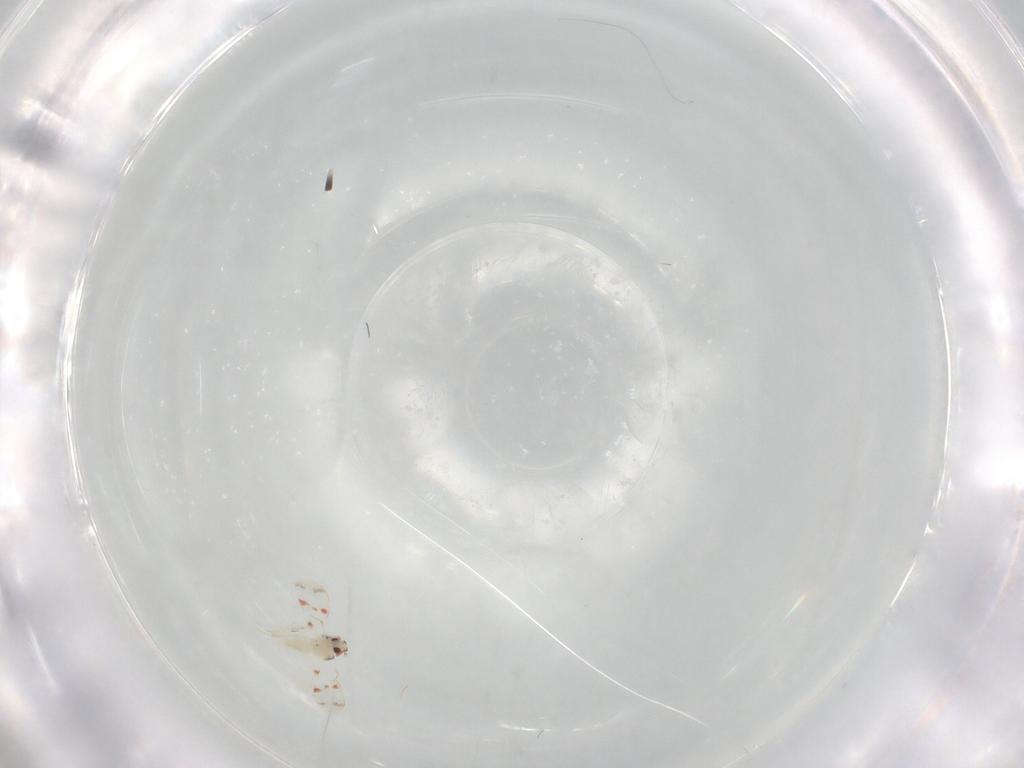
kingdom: Animalia
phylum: Arthropoda
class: Insecta
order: Hemiptera
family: Aleyrodidae
